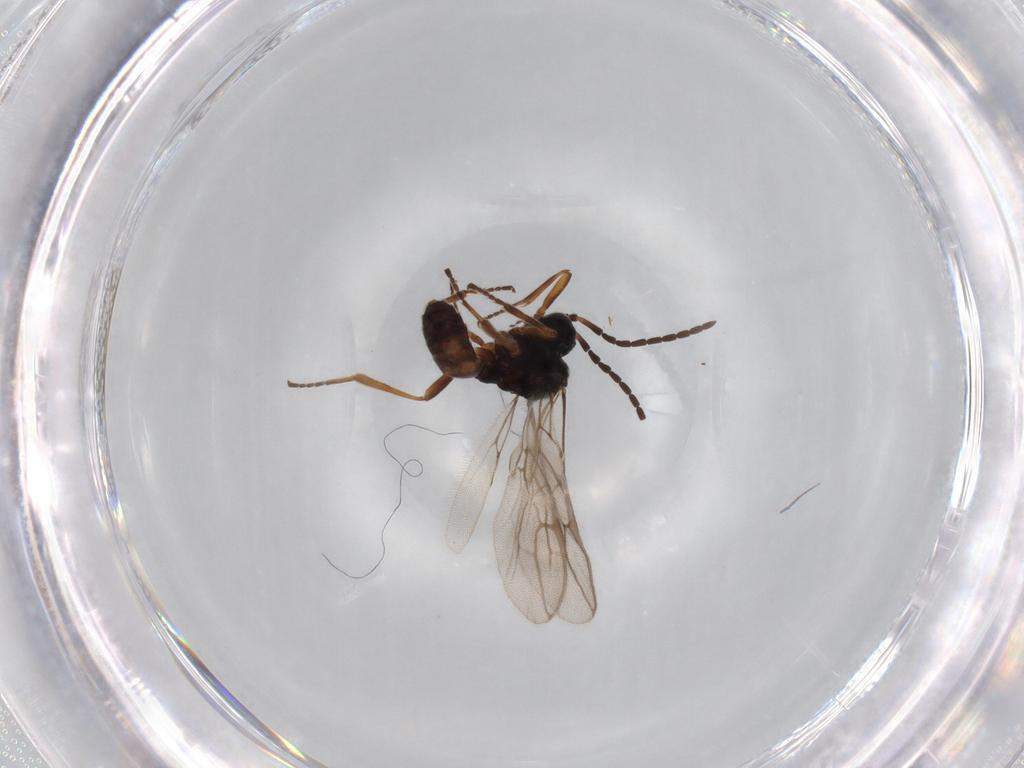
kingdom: Animalia
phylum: Arthropoda
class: Insecta
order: Hymenoptera
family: Braconidae
